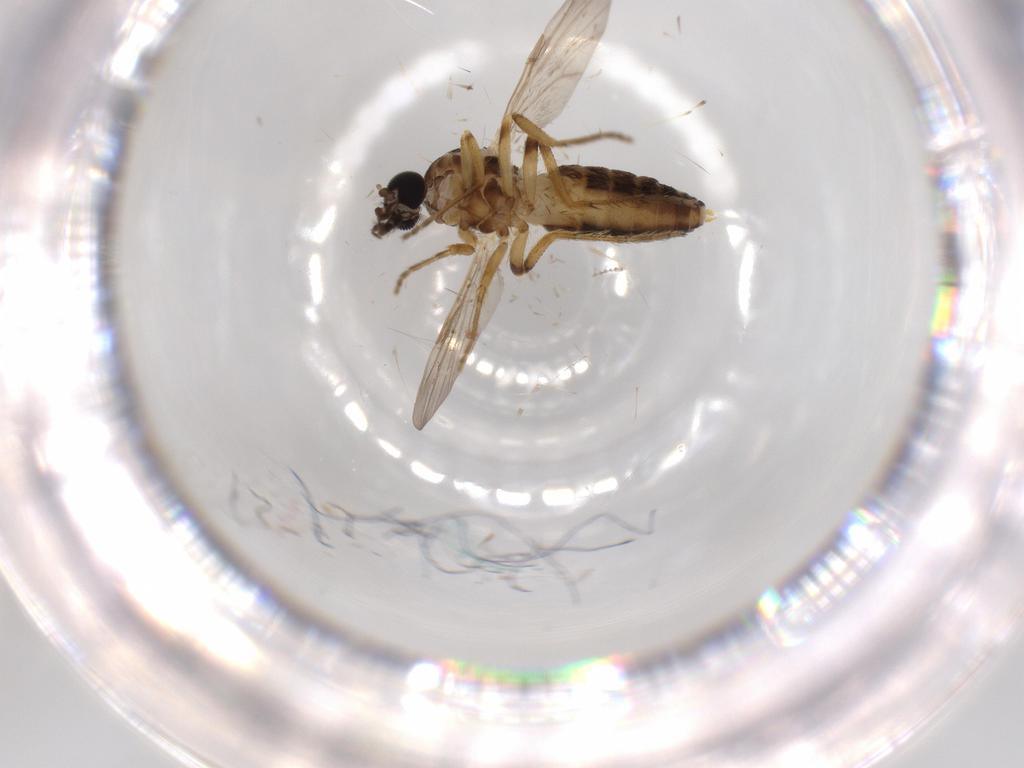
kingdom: Animalia
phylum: Arthropoda
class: Insecta
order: Diptera
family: Ceratopogonidae
